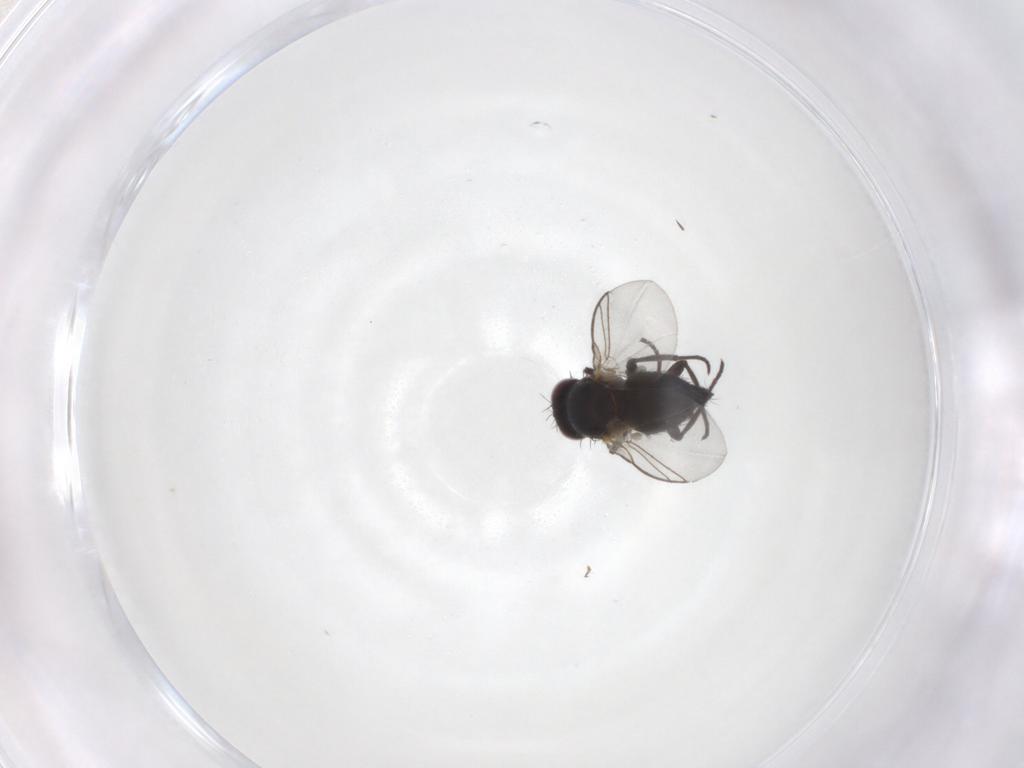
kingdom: Animalia
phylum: Arthropoda
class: Insecta
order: Diptera
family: Agromyzidae
